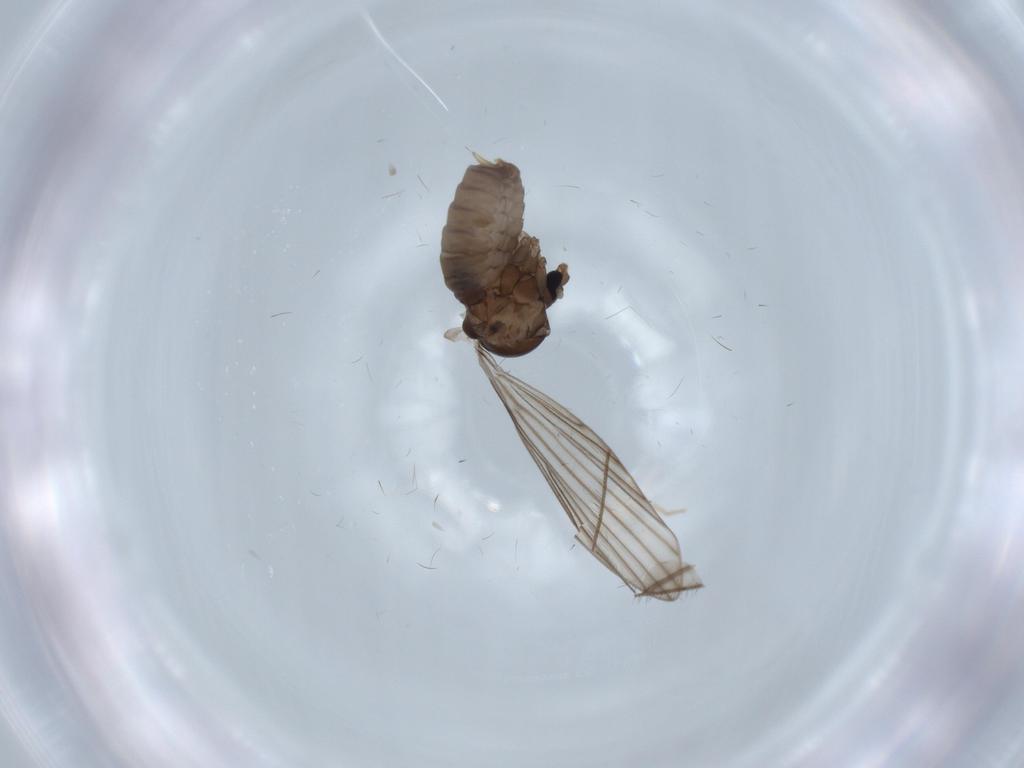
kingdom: Animalia
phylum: Arthropoda
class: Insecta
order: Diptera
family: Psychodidae
